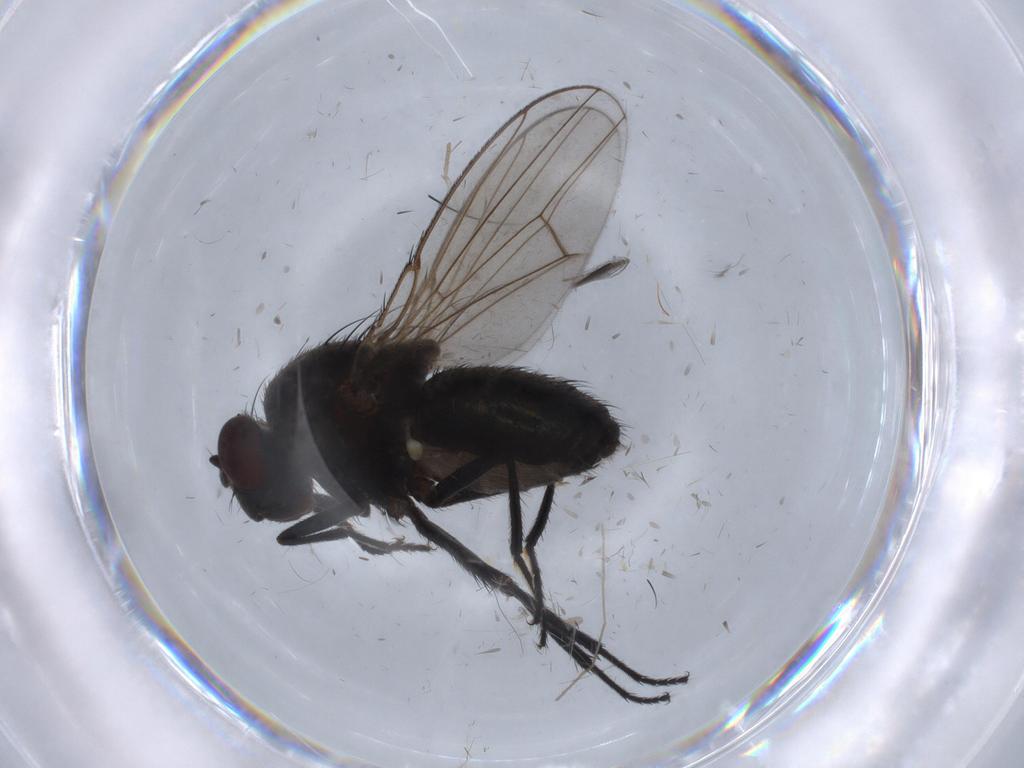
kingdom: Animalia
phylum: Arthropoda
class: Insecta
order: Diptera
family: Ephydridae
